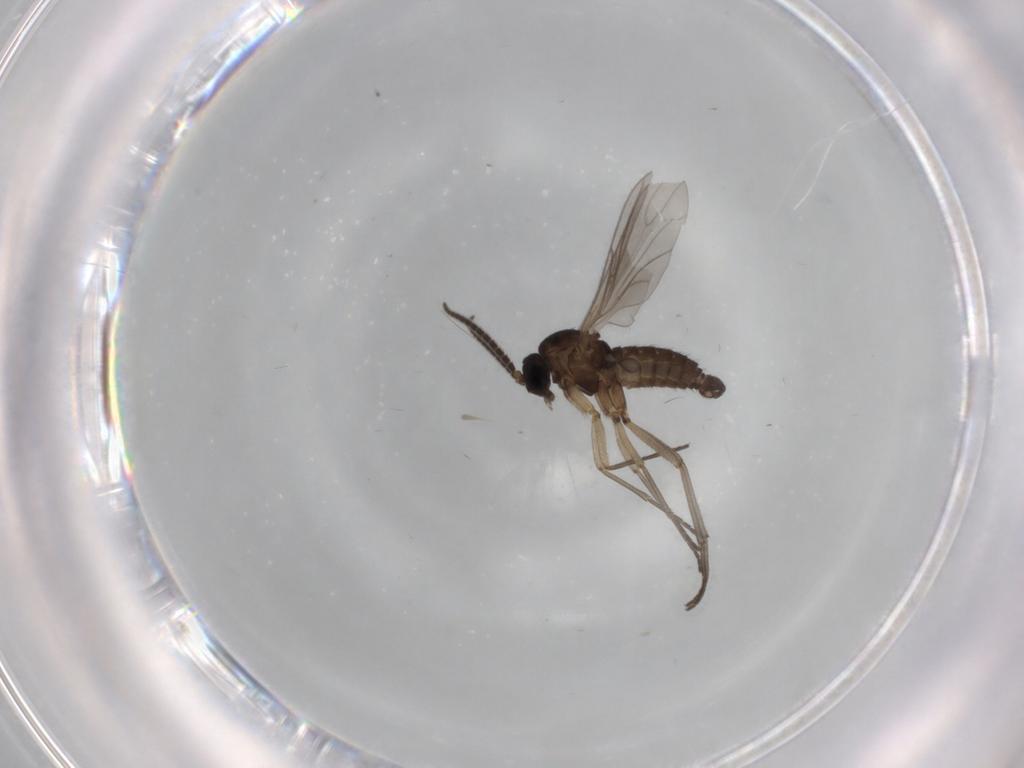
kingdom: Animalia
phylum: Arthropoda
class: Insecta
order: Diptera
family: Sciaridae
